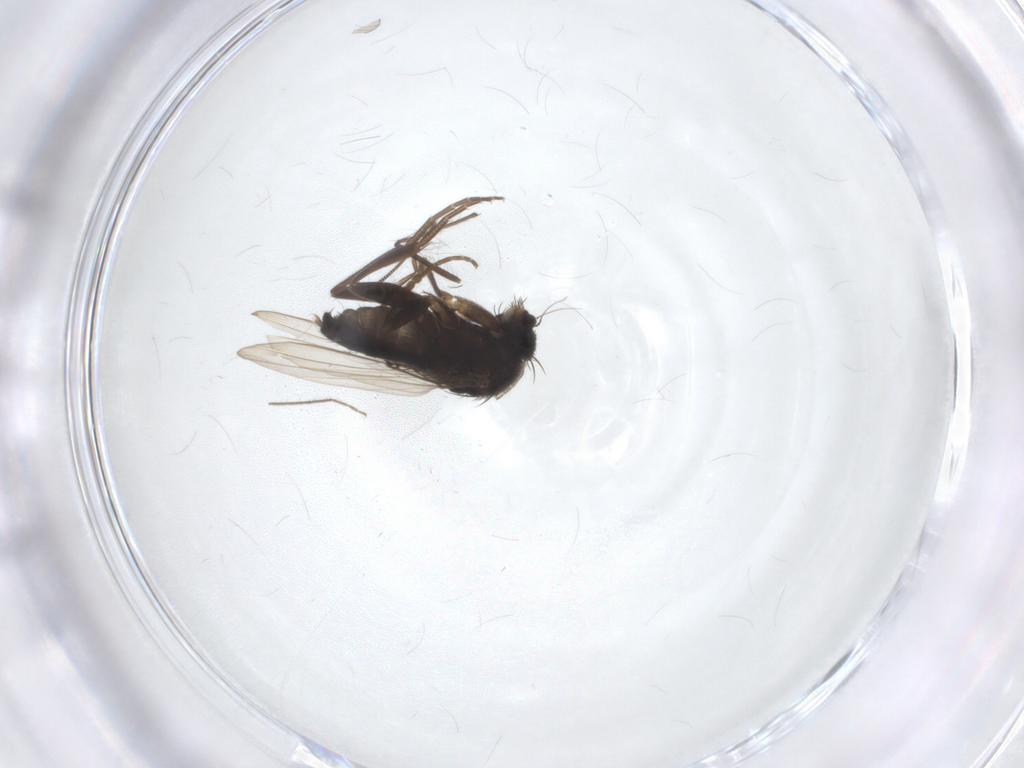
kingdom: Animalia
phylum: Arthropoda
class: Insecta
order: Diptera
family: Phoridae
